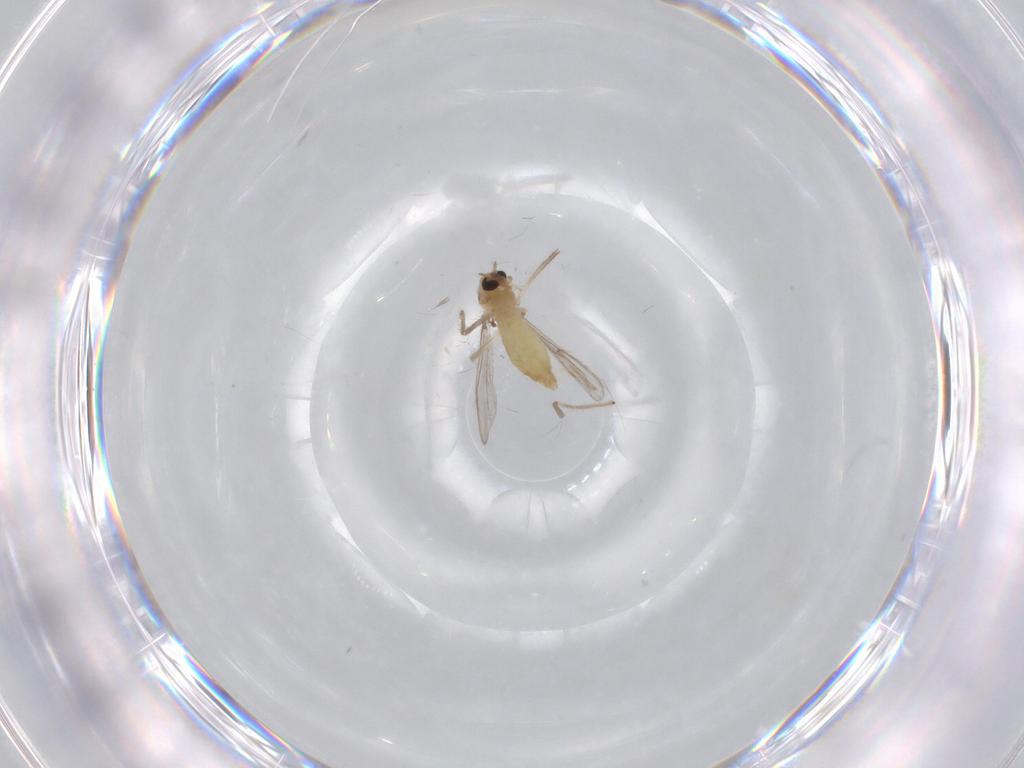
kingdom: Animalia
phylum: Arthropoda
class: Insecta
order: Diptera
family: Chironomidae
